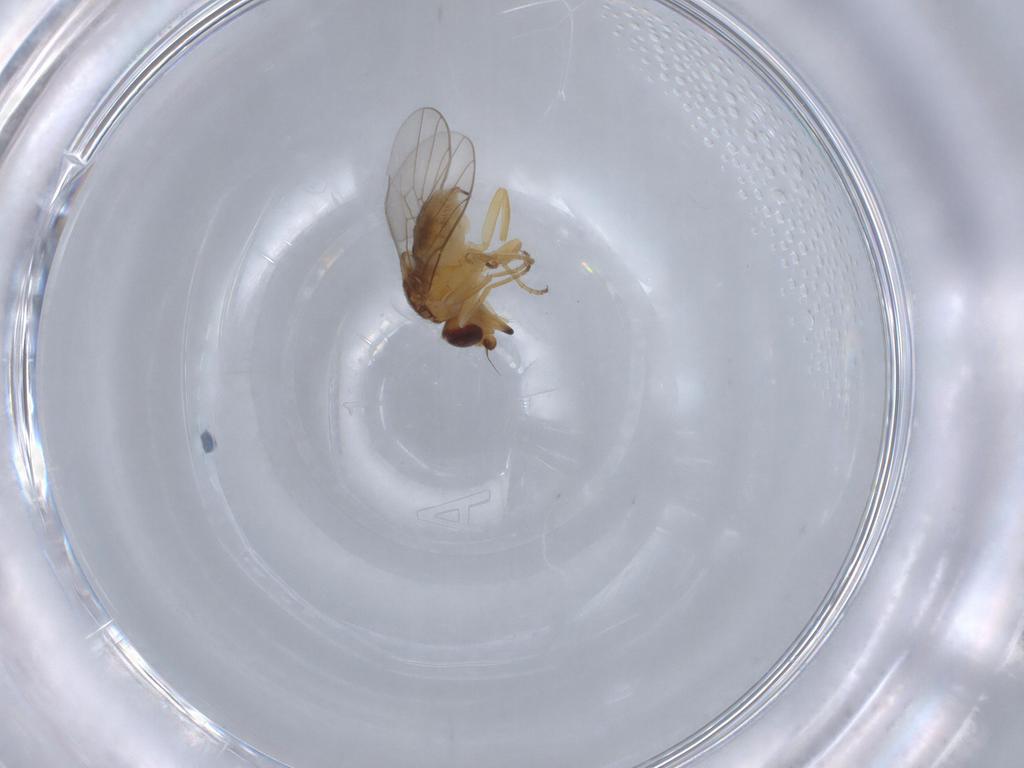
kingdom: Animalia
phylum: Arthropoda
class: Insecta
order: Diptera
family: Chloropidae
